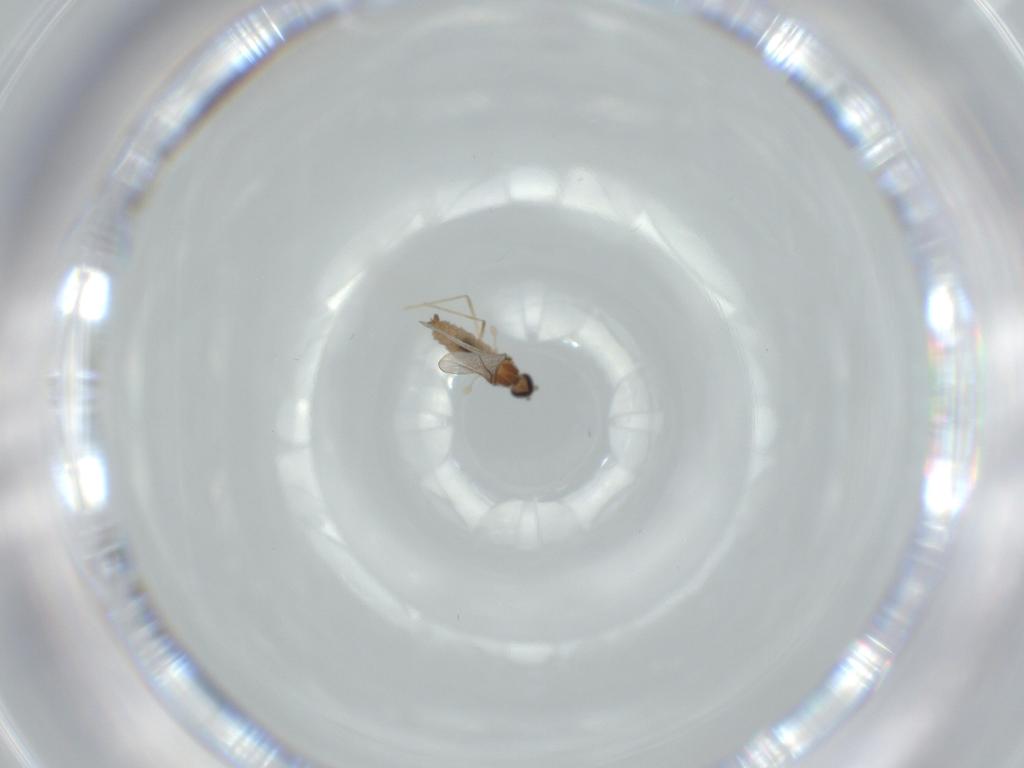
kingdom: Animalia
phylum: Arthropoda
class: Insecta
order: Diptera
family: Cecidomyiidae
